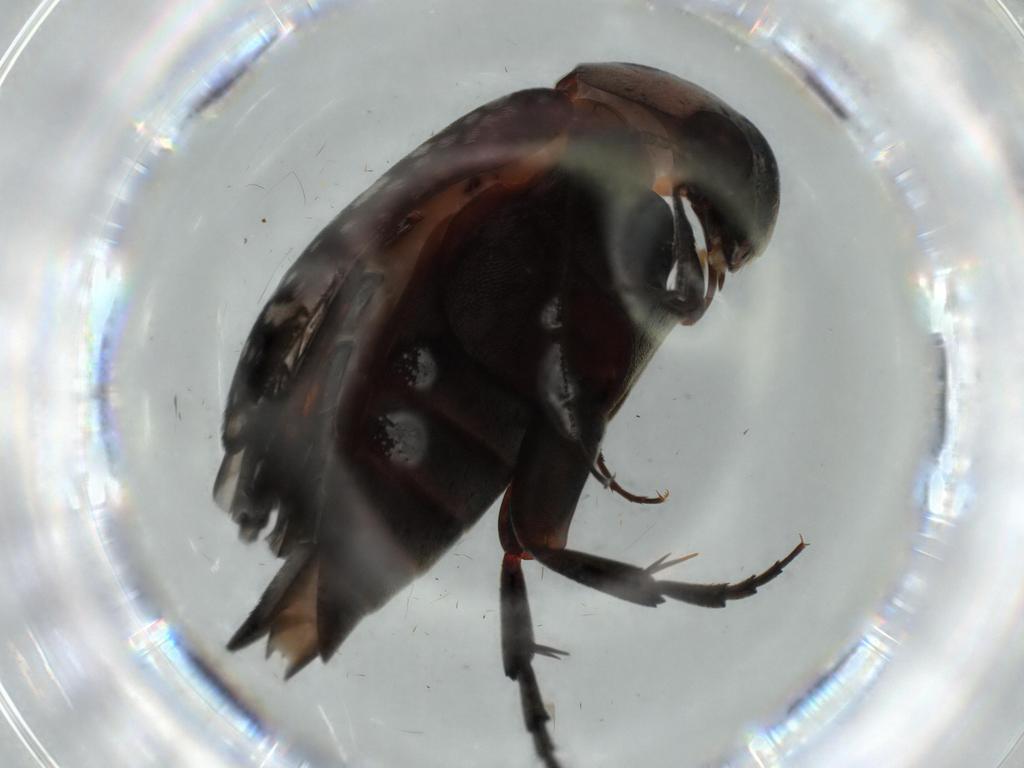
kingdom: Animalia
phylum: Arthropoda
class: Insecta
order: Coleoptera
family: Mordellidae
